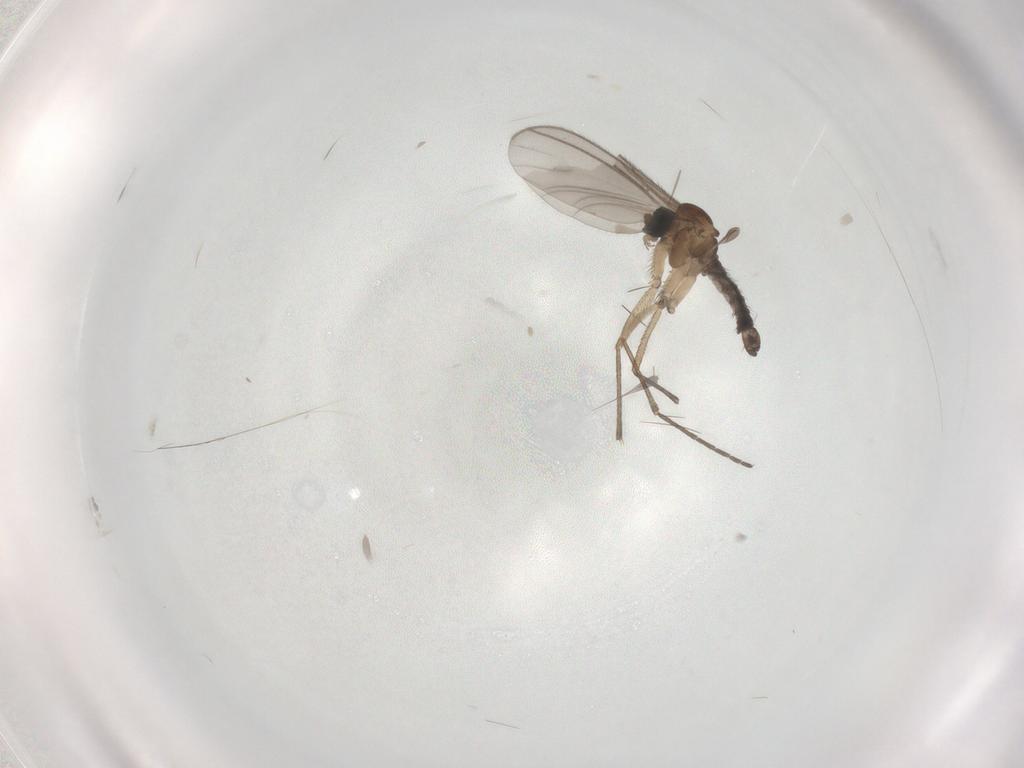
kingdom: Animalia
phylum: Arthropoda
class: Insecta
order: Diptera
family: Sciaridae
